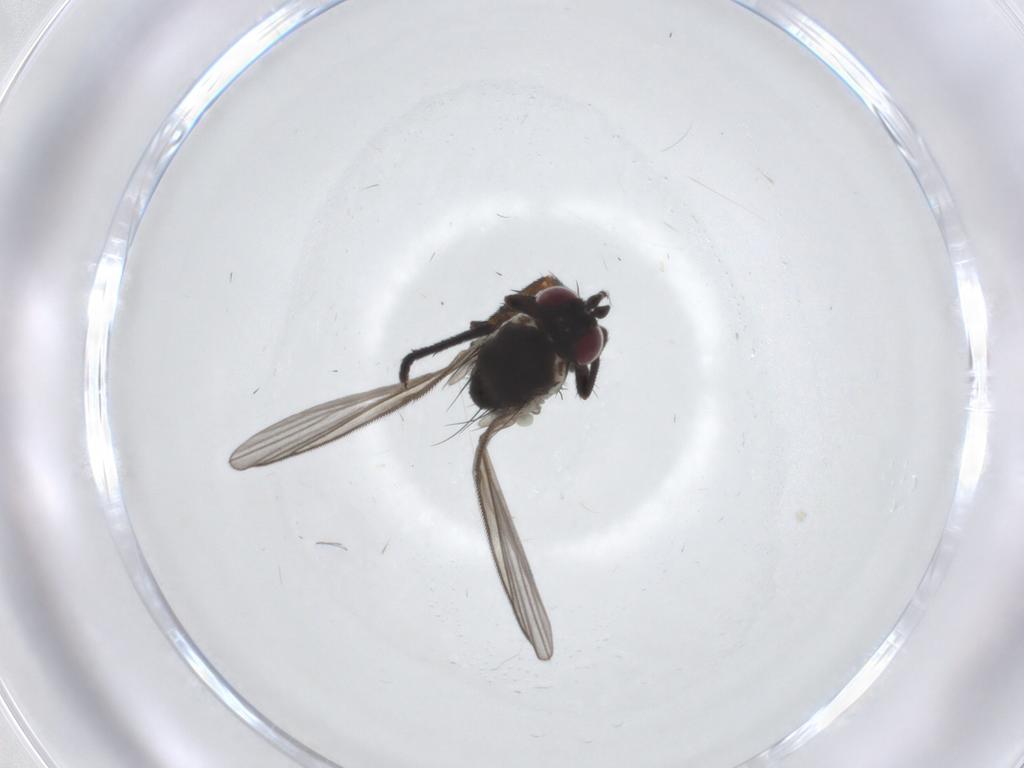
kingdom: Animalia
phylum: Arthropoda
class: Insecta
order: Diptera
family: Tachinidae
